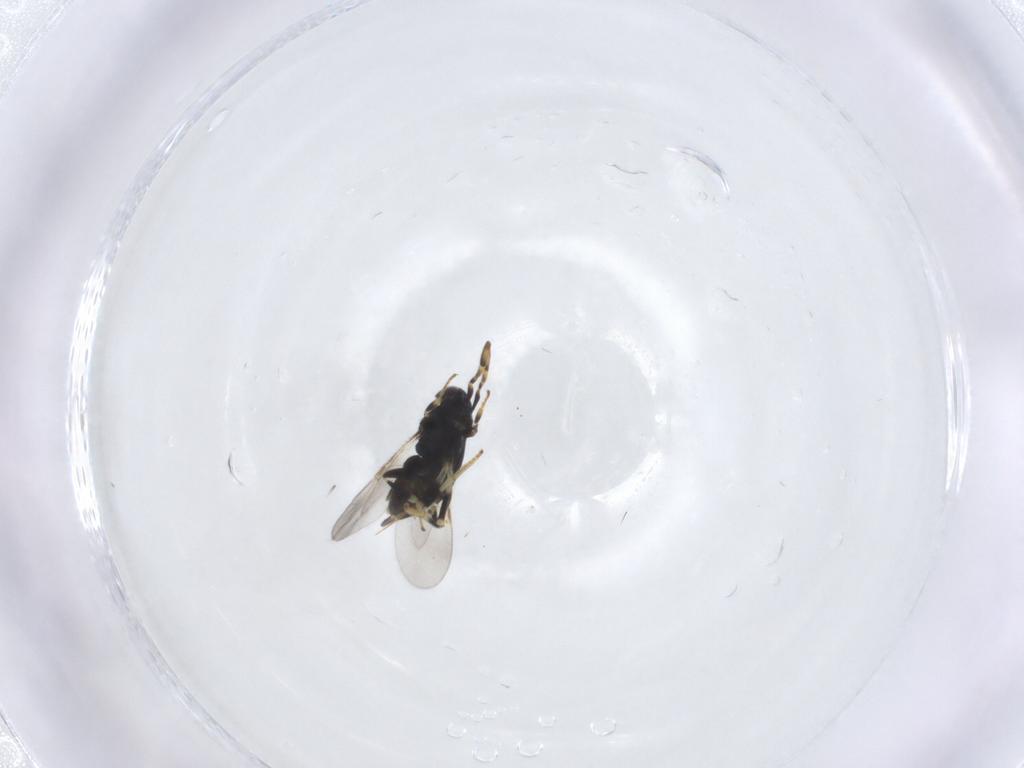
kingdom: Animalia
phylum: Arthropoda
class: Insecta
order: Hymenoptera
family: Encyrtidae
